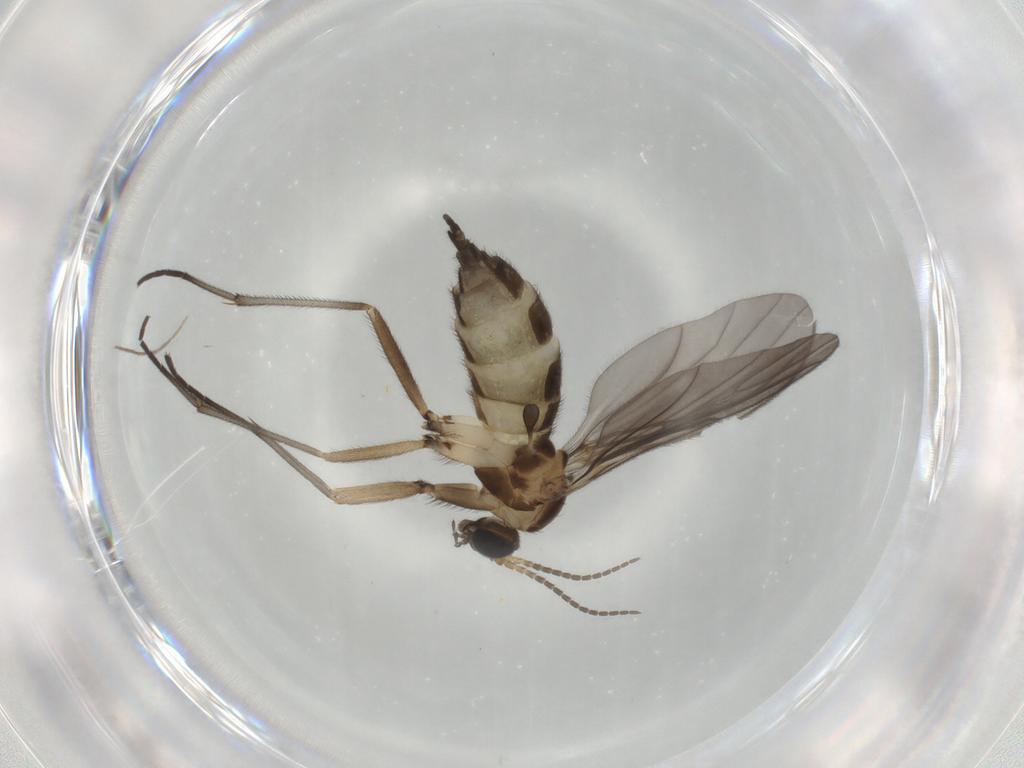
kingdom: Animalia
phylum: Arthropoda
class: Insecta
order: Diptera
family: Sciaridae
